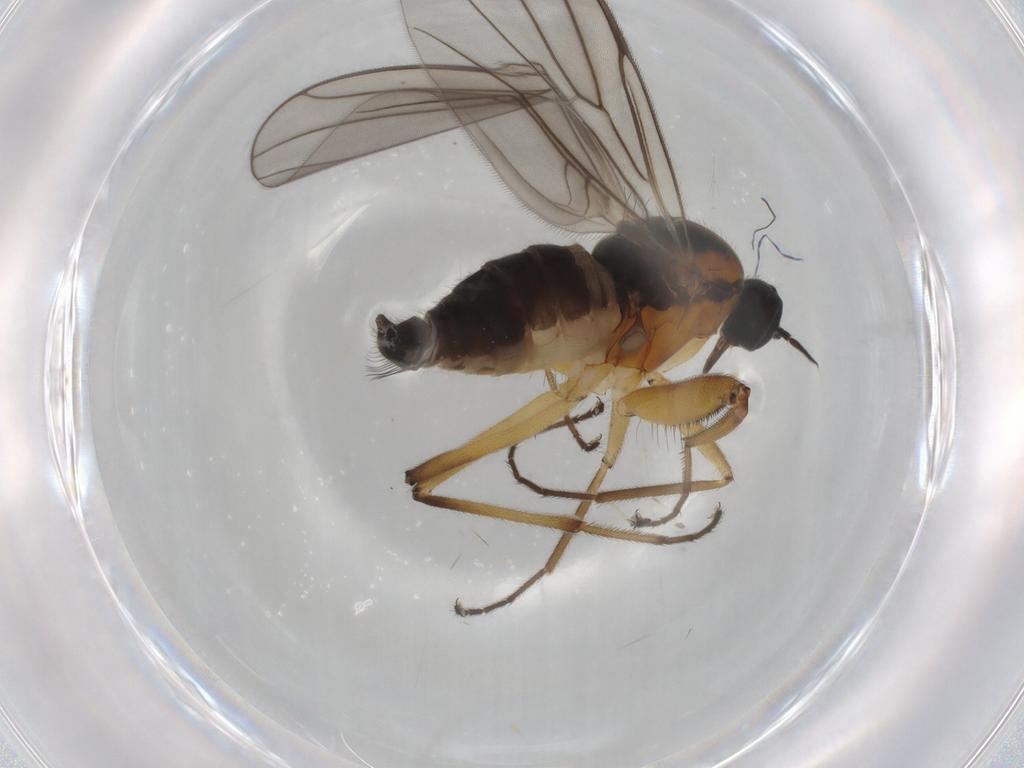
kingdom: Animalia
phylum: Arthropoda
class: Insecta
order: Diptera
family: Hybotidae
